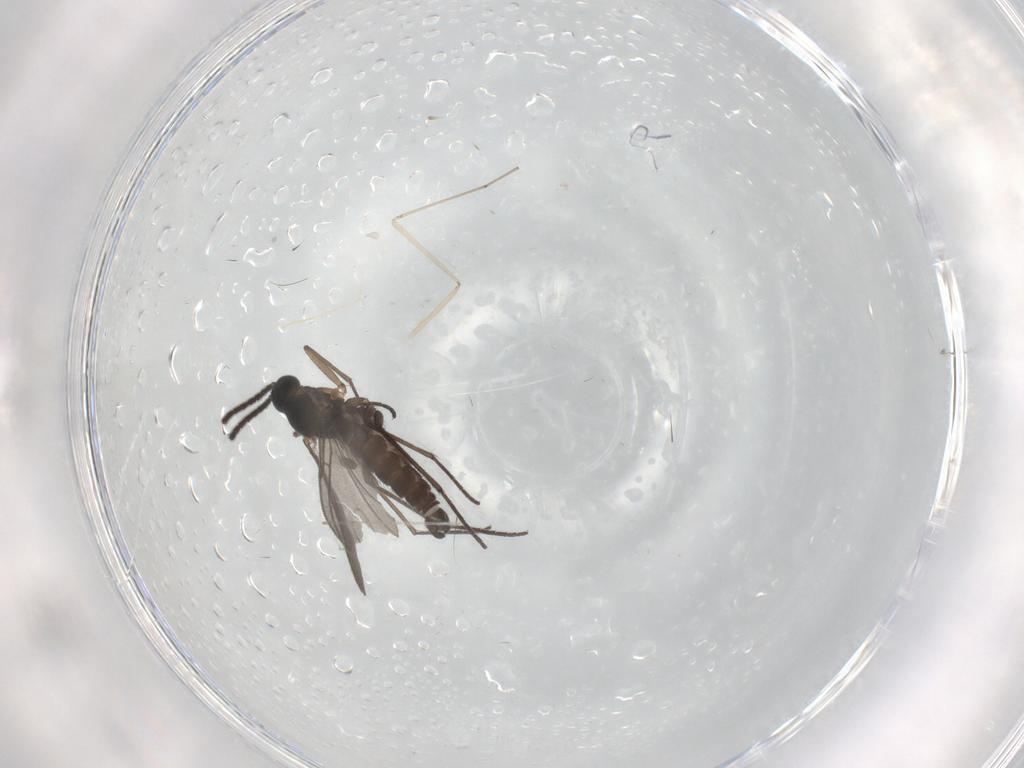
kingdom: Animalia
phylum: Arthropoda
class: Insecta
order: Diptera
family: Sciaridae
